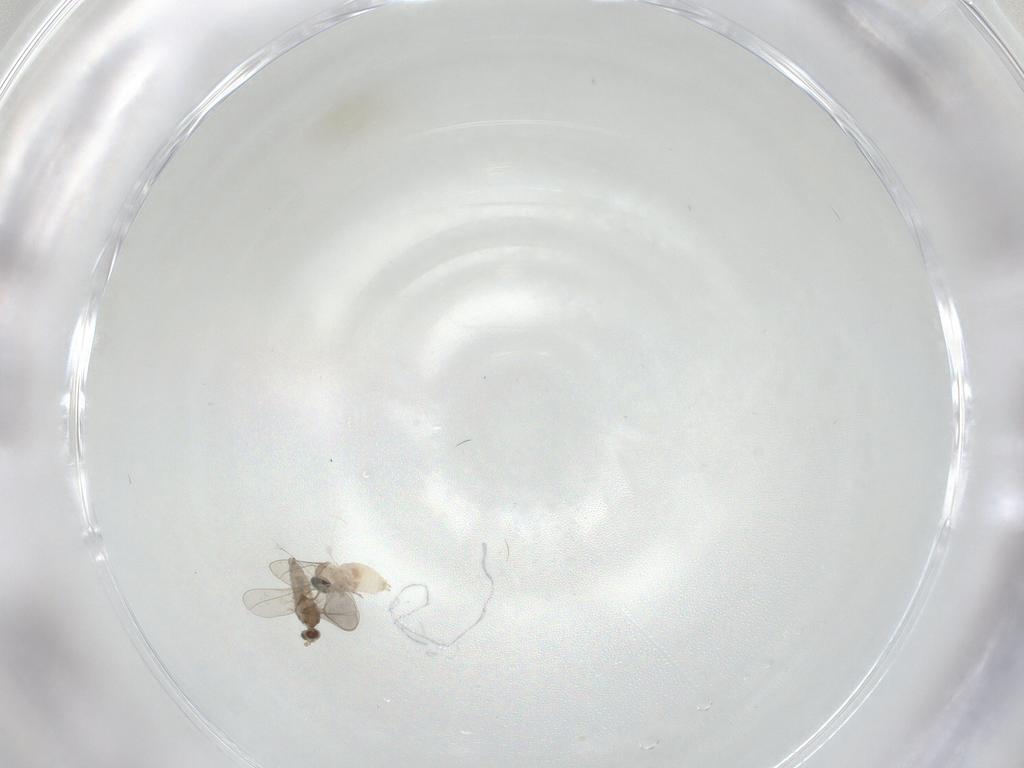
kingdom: Animalia
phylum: Arthropoda
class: Insecta
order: Diptera
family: Cecidomyiidae
